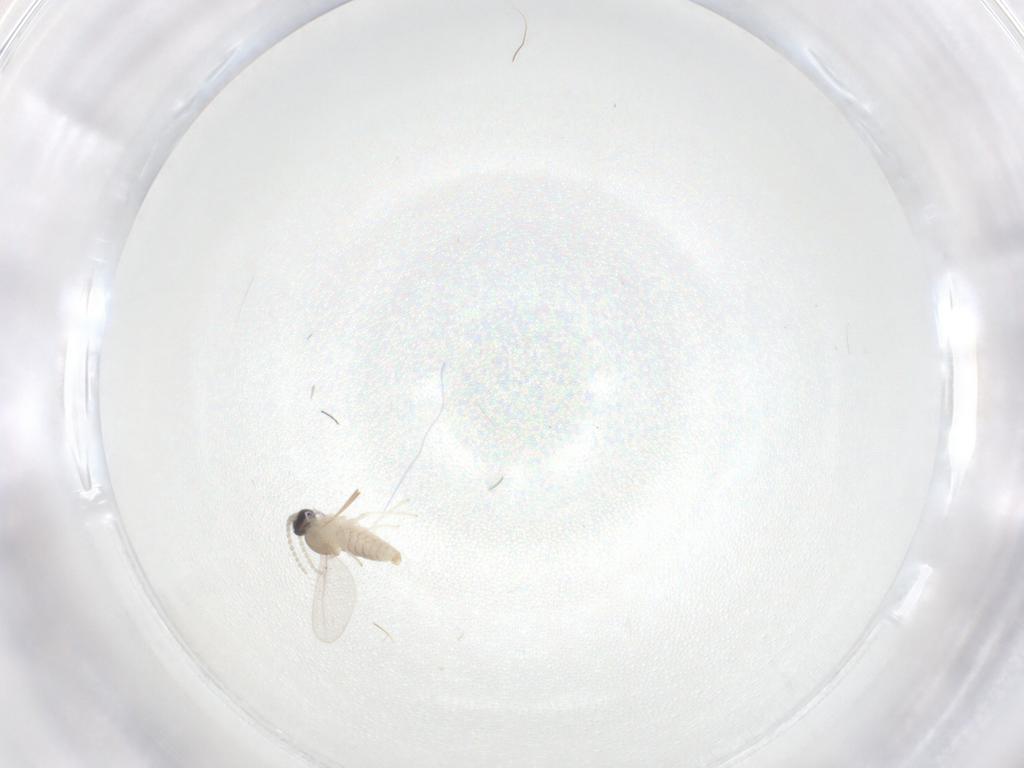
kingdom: Animalia
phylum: Arthropoda
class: Insecta
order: Diptera
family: Cecidomyiidae
